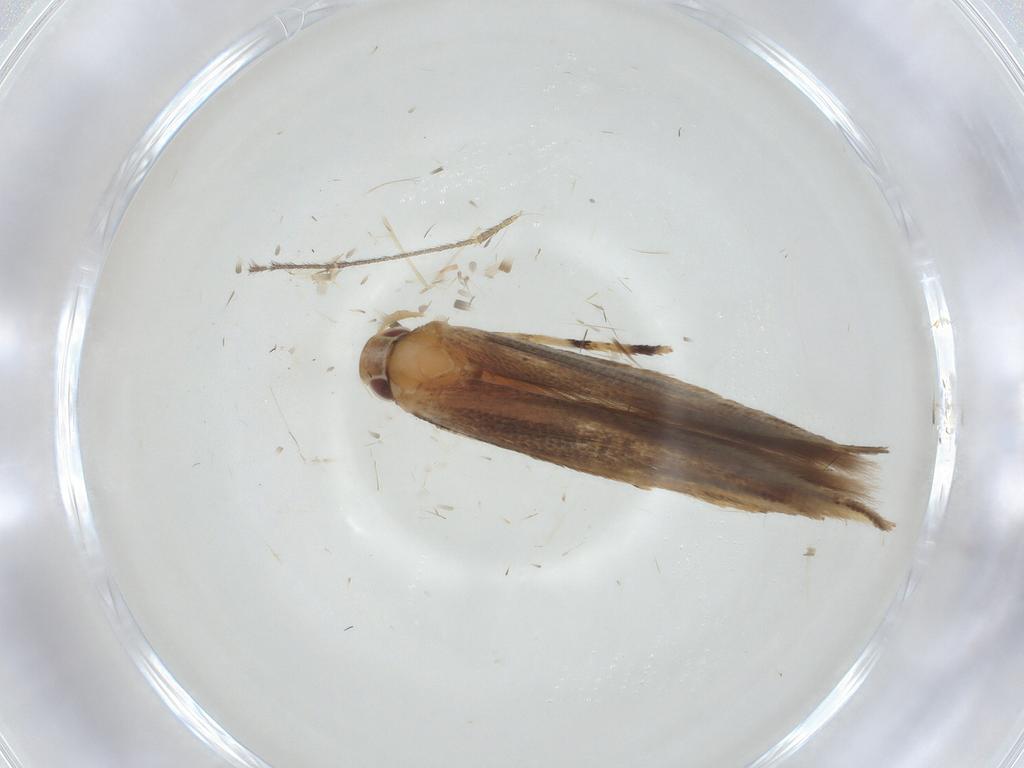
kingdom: Animalia
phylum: Arthropoda
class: Insecta
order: Lepidoptera
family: Cosmopterigidae
